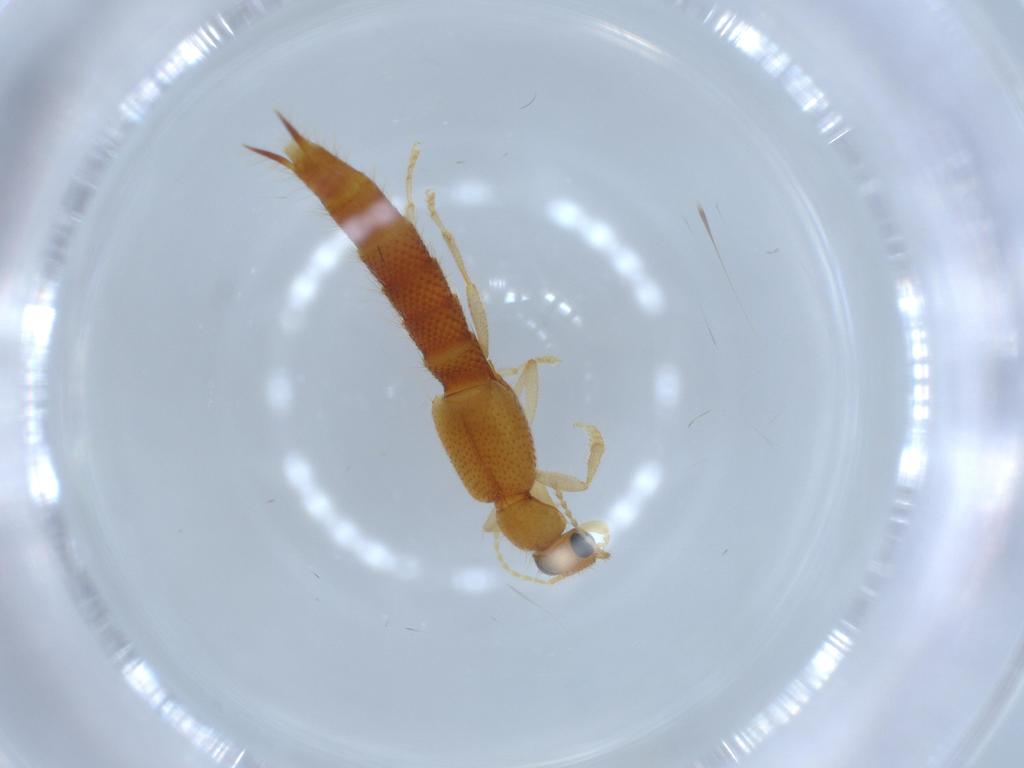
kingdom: Animalia
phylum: Arthropoda
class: Insecta
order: Coleoptera
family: Staphylinidae
